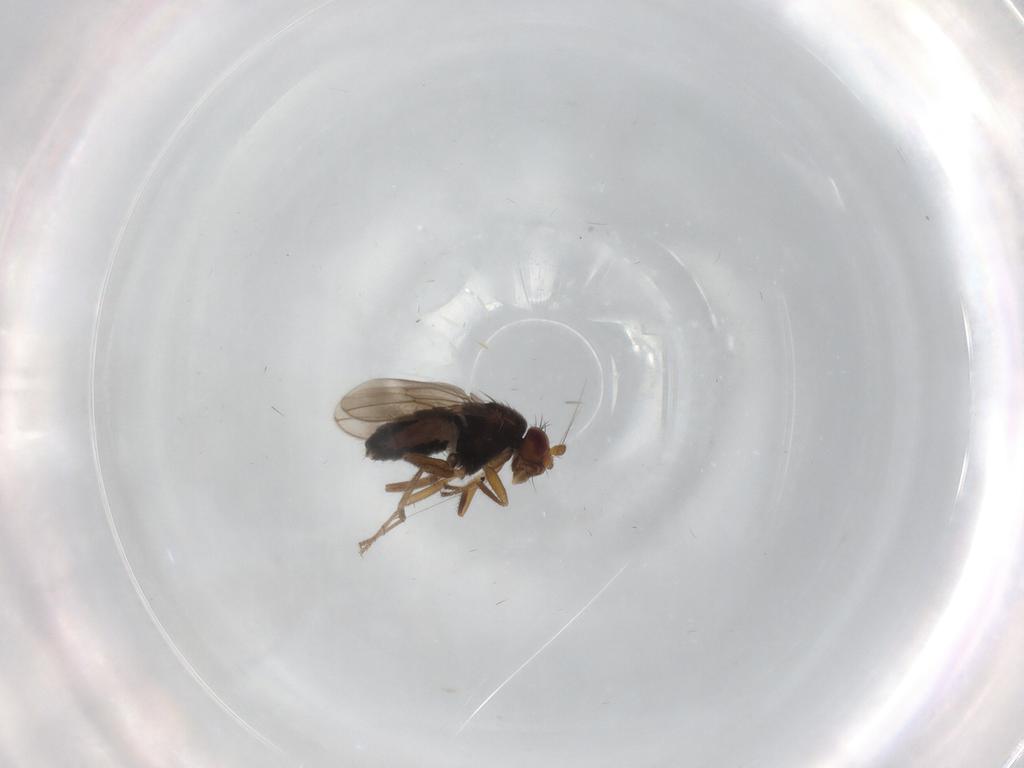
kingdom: Animalia
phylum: Arthropoda
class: Insecta
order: Diptera
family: Sphaeroceridae
